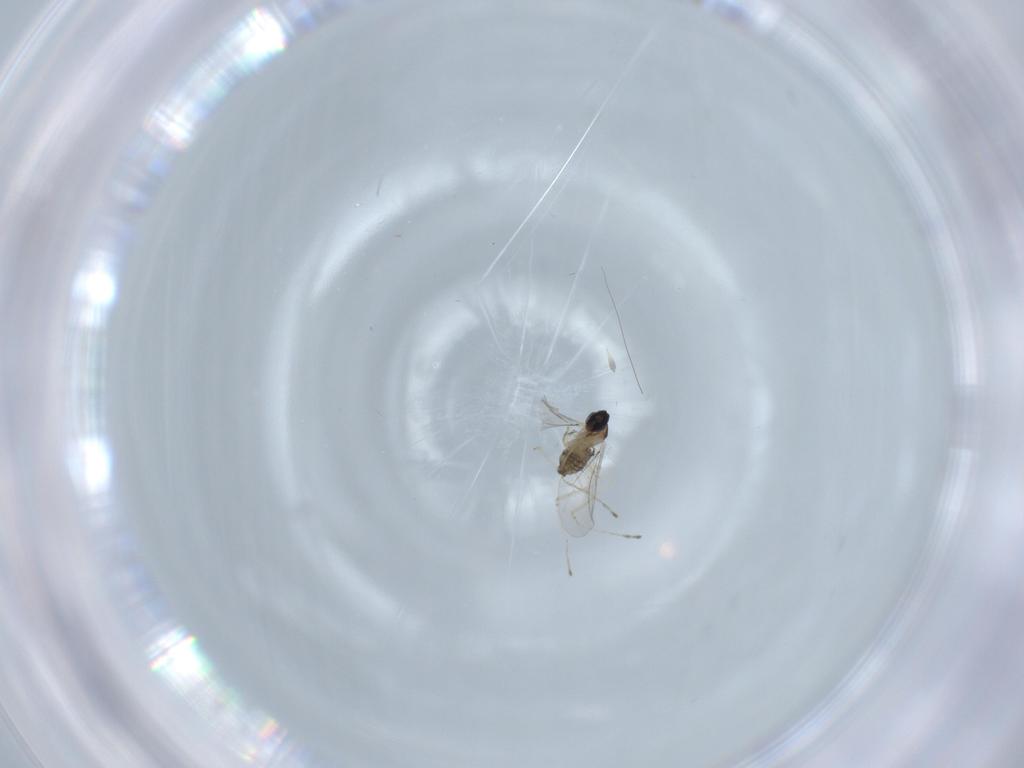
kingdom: Animalia
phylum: Arthropoda
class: Insecta
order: Diptera
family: Cecidomyiidae
